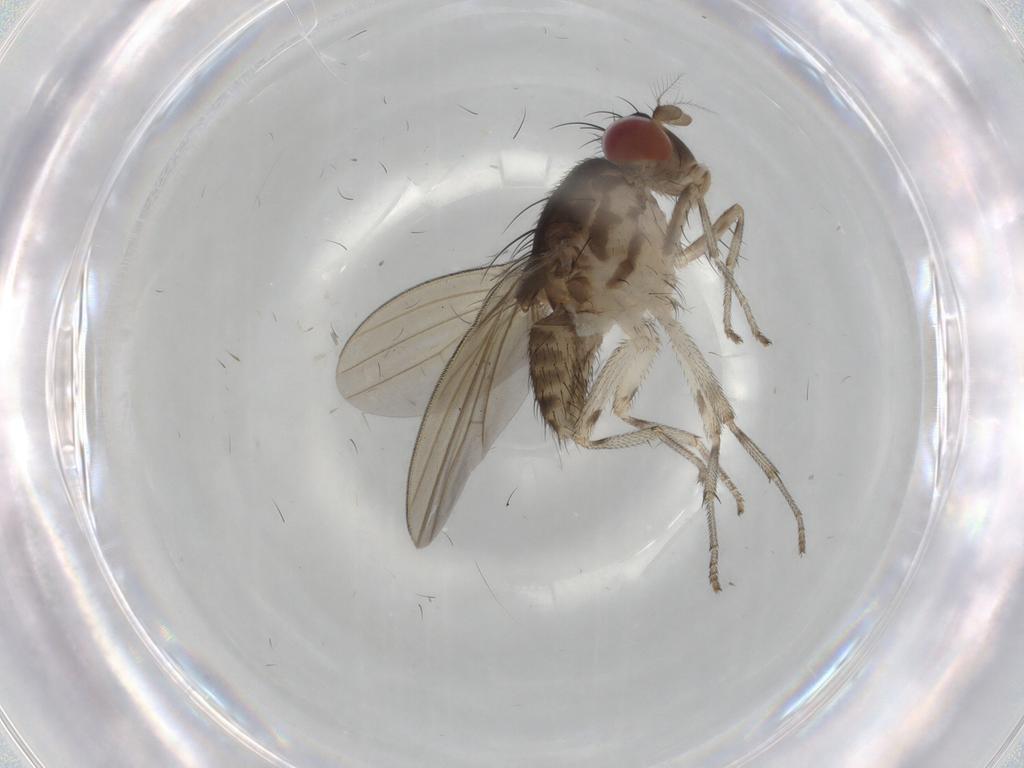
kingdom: Animalia
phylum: Arthropoda
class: Insecta
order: Diptera
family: Sciaridae
